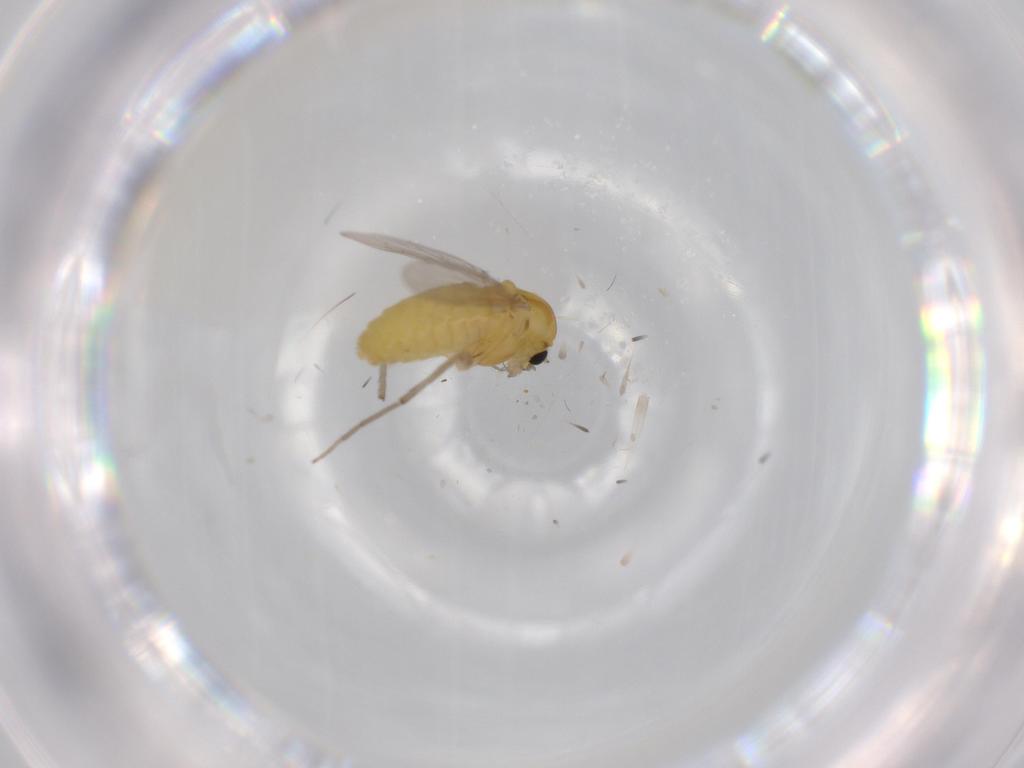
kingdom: Animalia
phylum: Arthropoda
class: Insecta
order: Diptera
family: Cecidomyiidae
